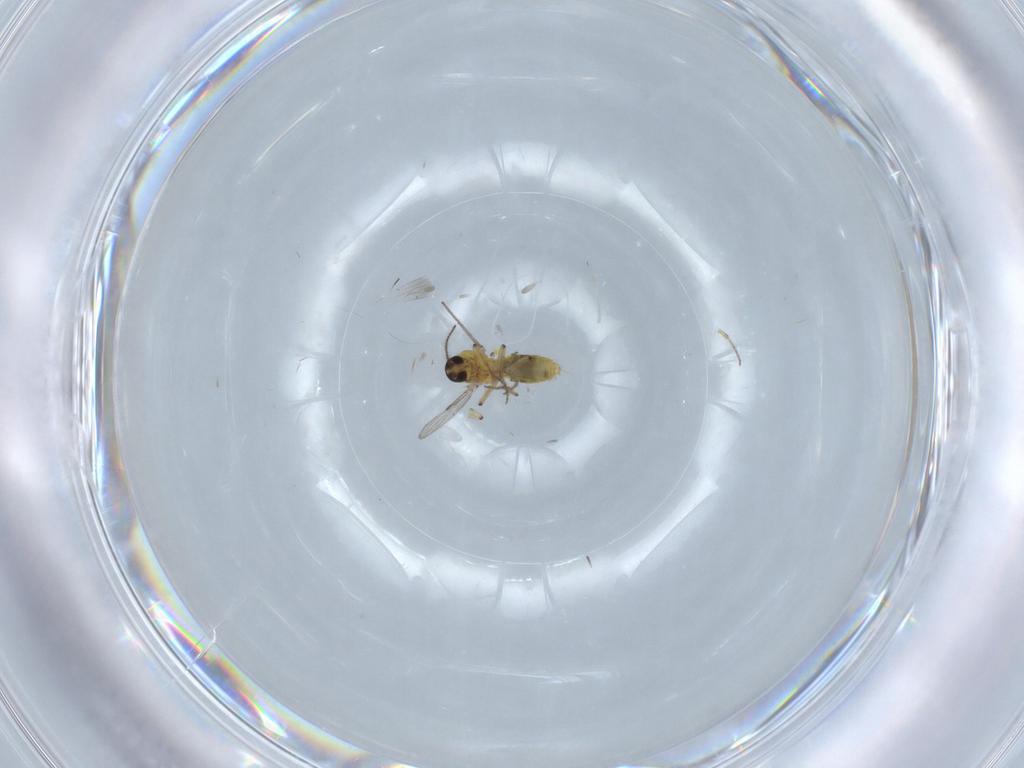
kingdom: Animalia
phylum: Arthropoda
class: Insecta
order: Diptera
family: Ceratopogonidae
